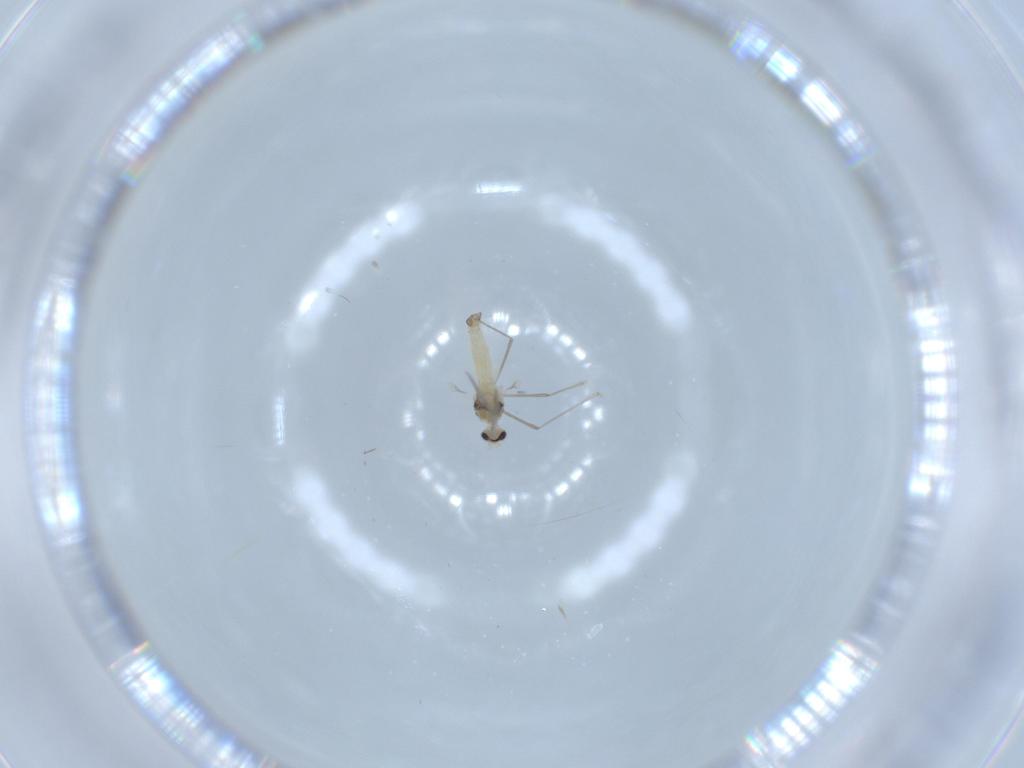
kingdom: Animalia
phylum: Arthropoda
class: Insecta
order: Diptera
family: Cecidomyiidae
